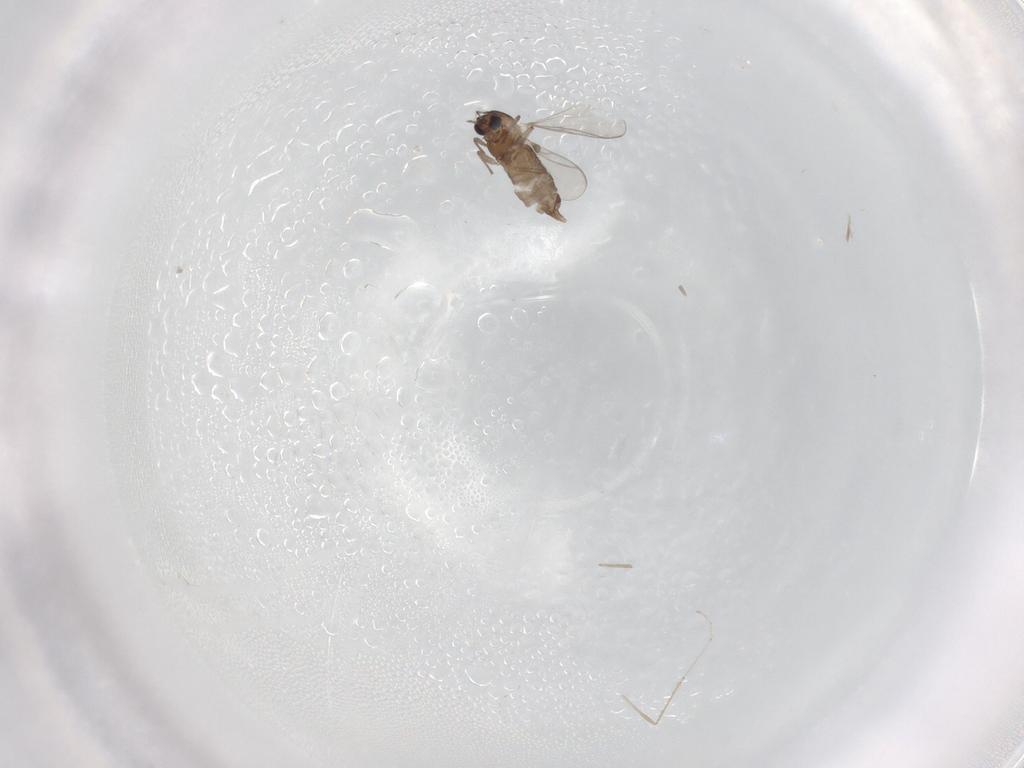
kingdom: Animalia
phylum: Arthropoda
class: Insecta
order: Diptera
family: Chironomidae
